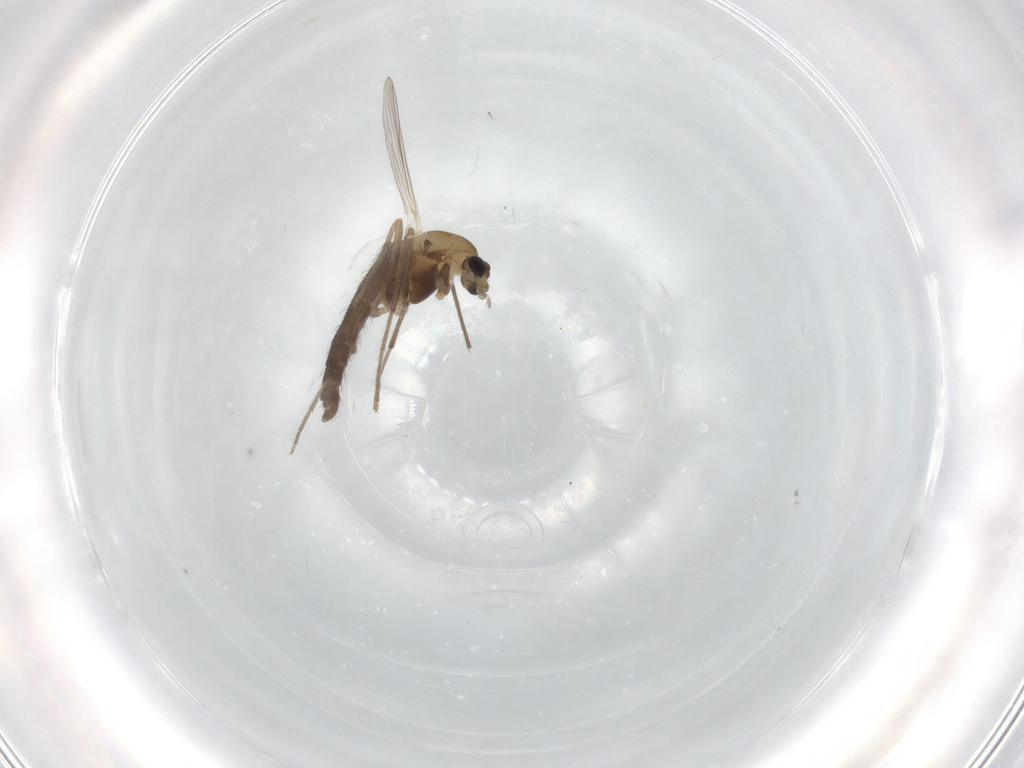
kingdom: Animalia
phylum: Arthropoda
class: Insecta
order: Diptera
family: Chironomidae
